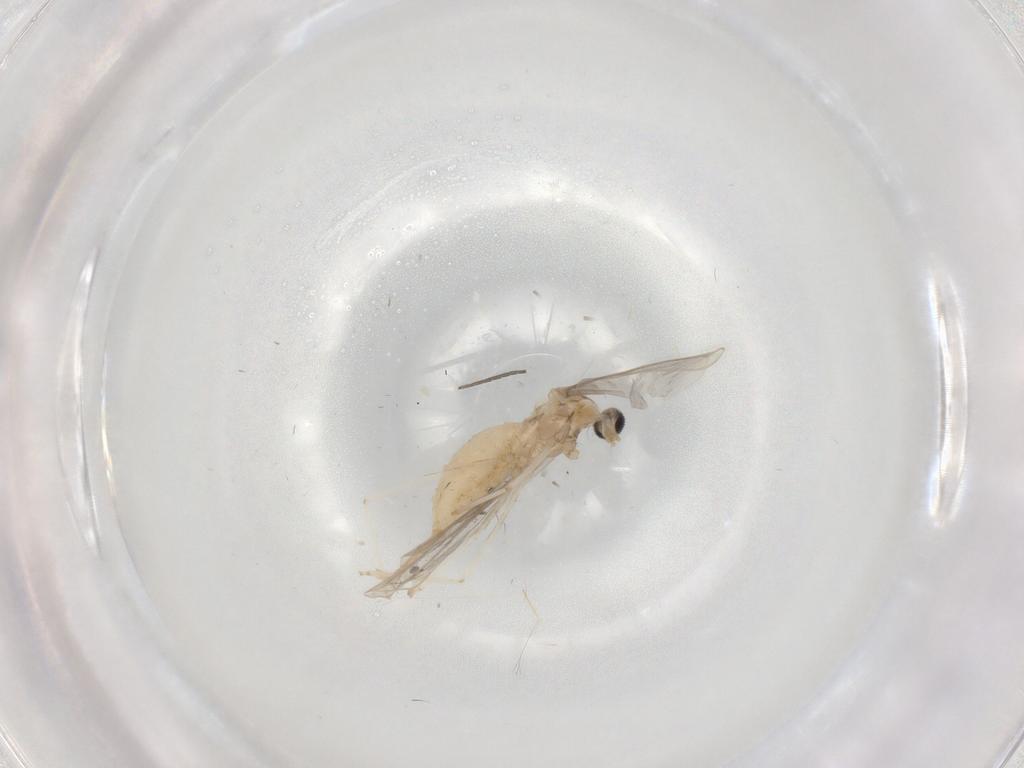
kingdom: Animalia
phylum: Arthropoda
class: Insecta
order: Diptera
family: Cecidomyiidae
